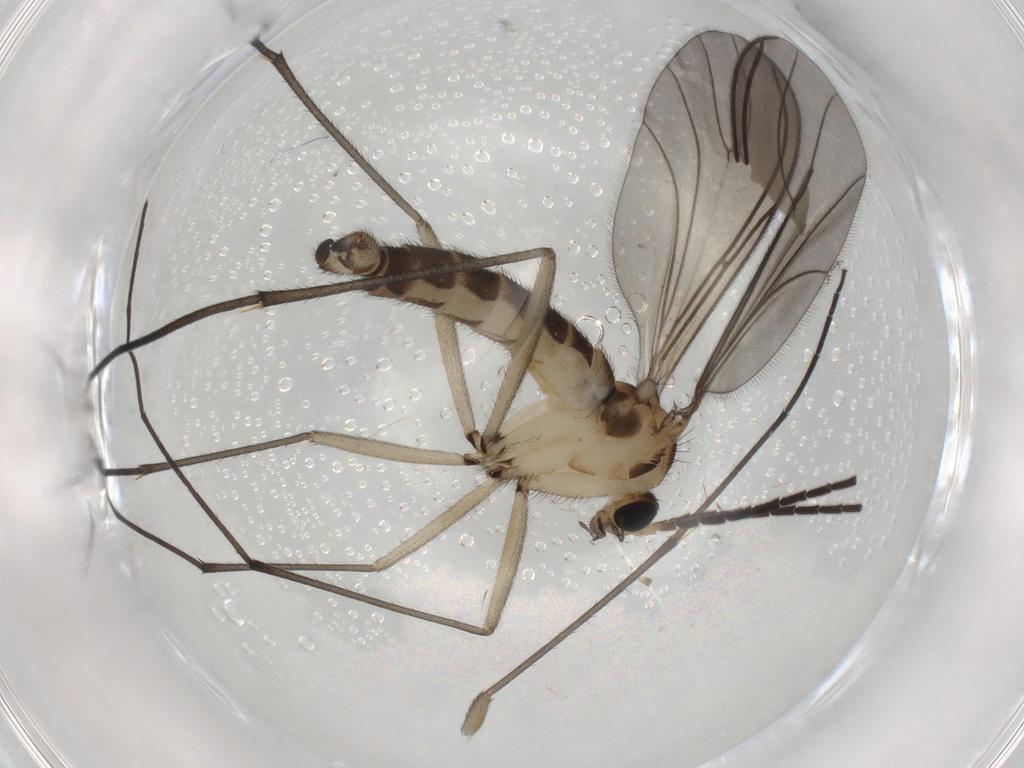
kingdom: Animalia
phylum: Arthropoda
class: Insecta
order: Diptera
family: Sciaridae
